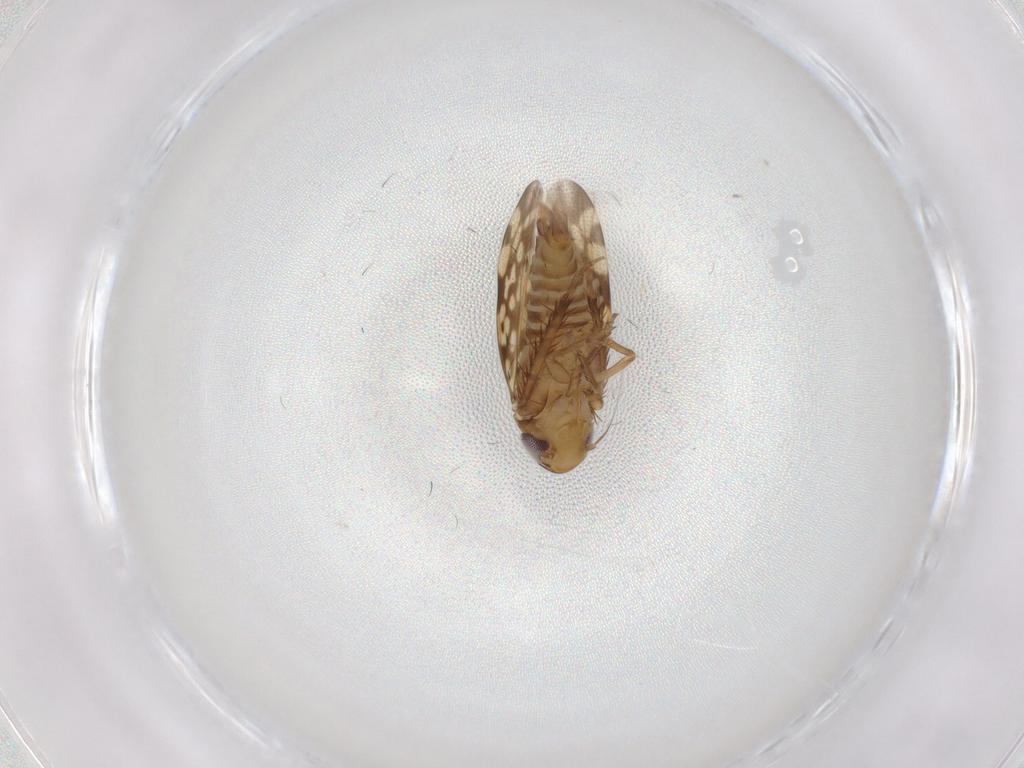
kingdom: Animalia
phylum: Arthropoda
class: Insecta
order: Hemiptera
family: Cicadellidae
